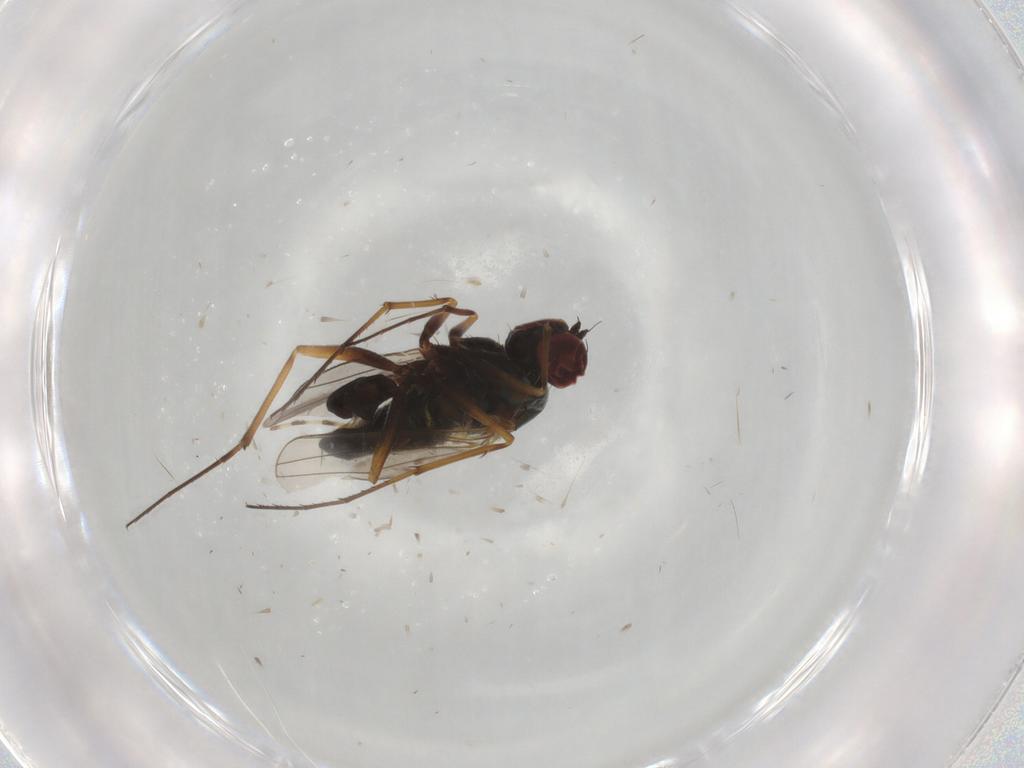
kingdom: Animalia
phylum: Arthropoda
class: Insecta
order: Diptera
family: Dolichopodidae
